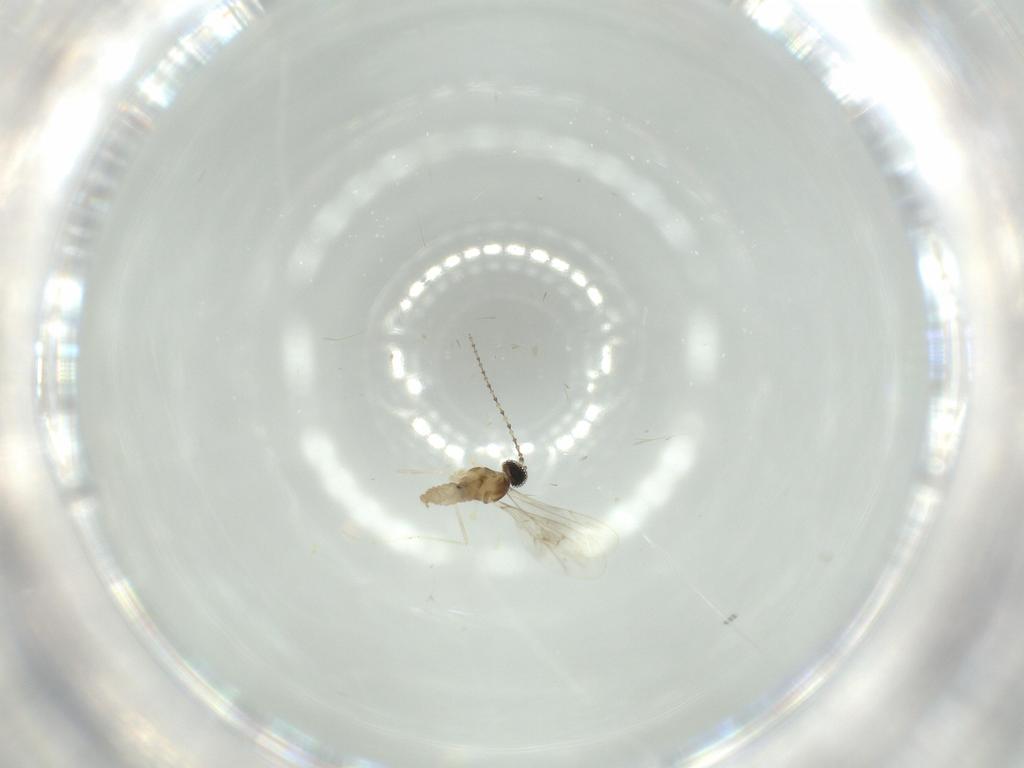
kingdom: Animalia
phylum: Arthropoda
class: Insecta
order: Diptera
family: Cecidomyiidae
